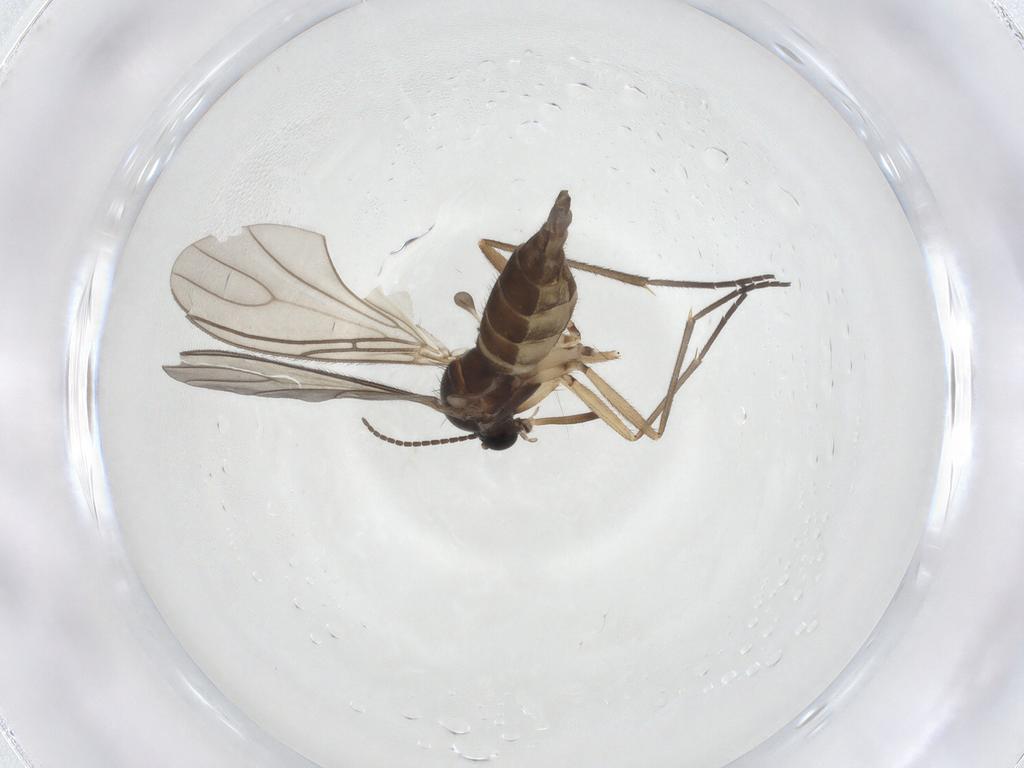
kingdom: Animalia
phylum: Arthropoda
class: Insecta
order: Diptera
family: Sciaridae
